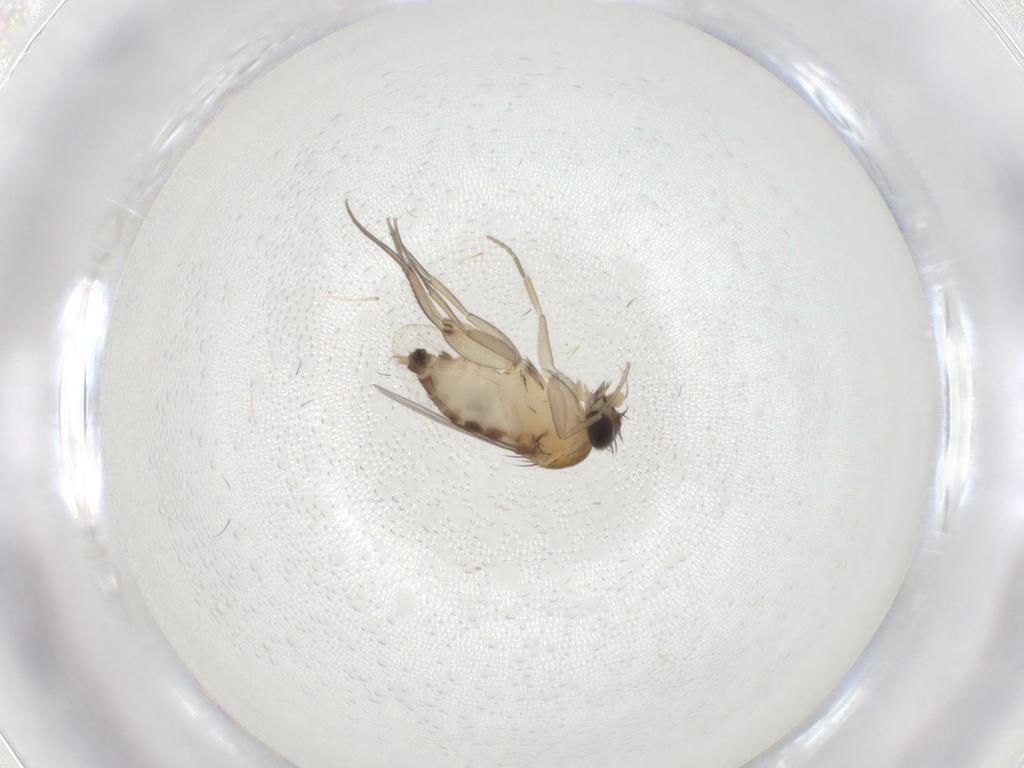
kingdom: Animalia
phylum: Arthropoda
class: Insecta
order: Diptera
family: Phoridae
